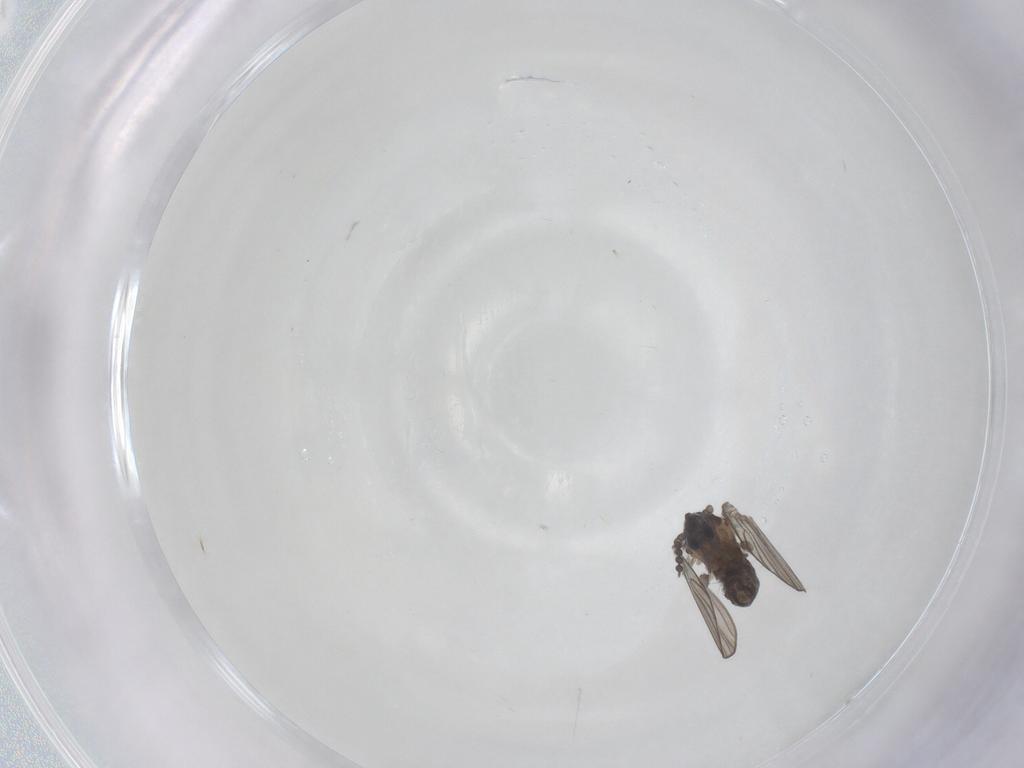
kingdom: Animalia
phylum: Arthropoda
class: Insecta
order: Diptera
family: Psychodidae
